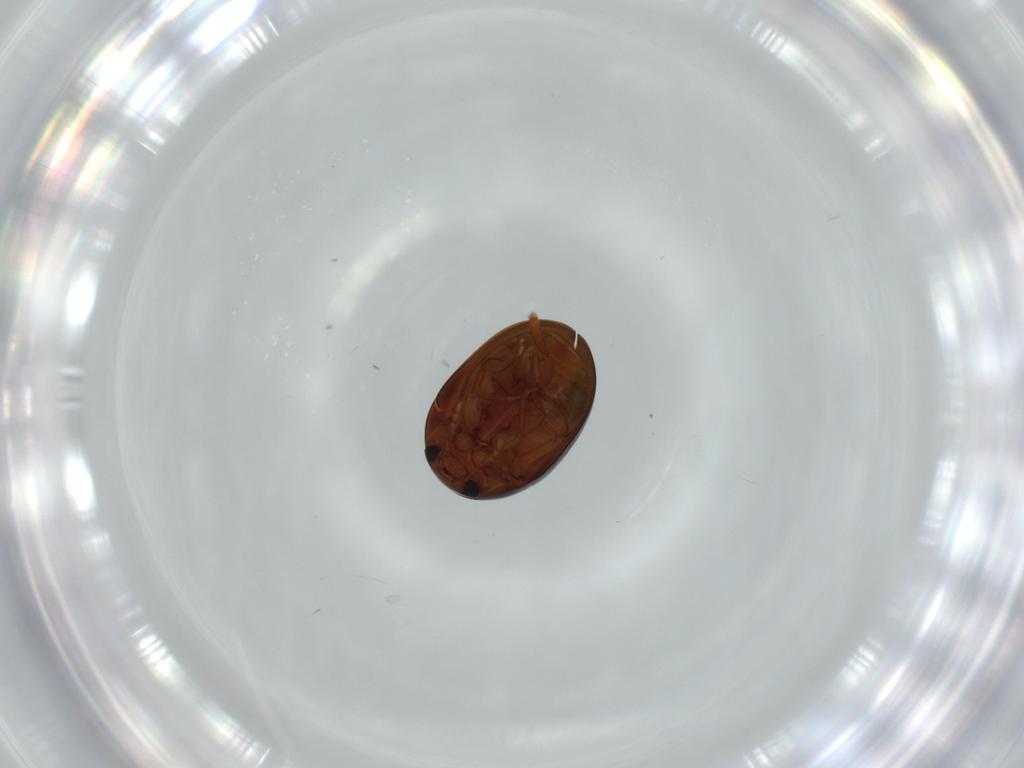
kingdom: Animalia
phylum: Arthropoda
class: Insecta
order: Coleoptera
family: Phalacridae
